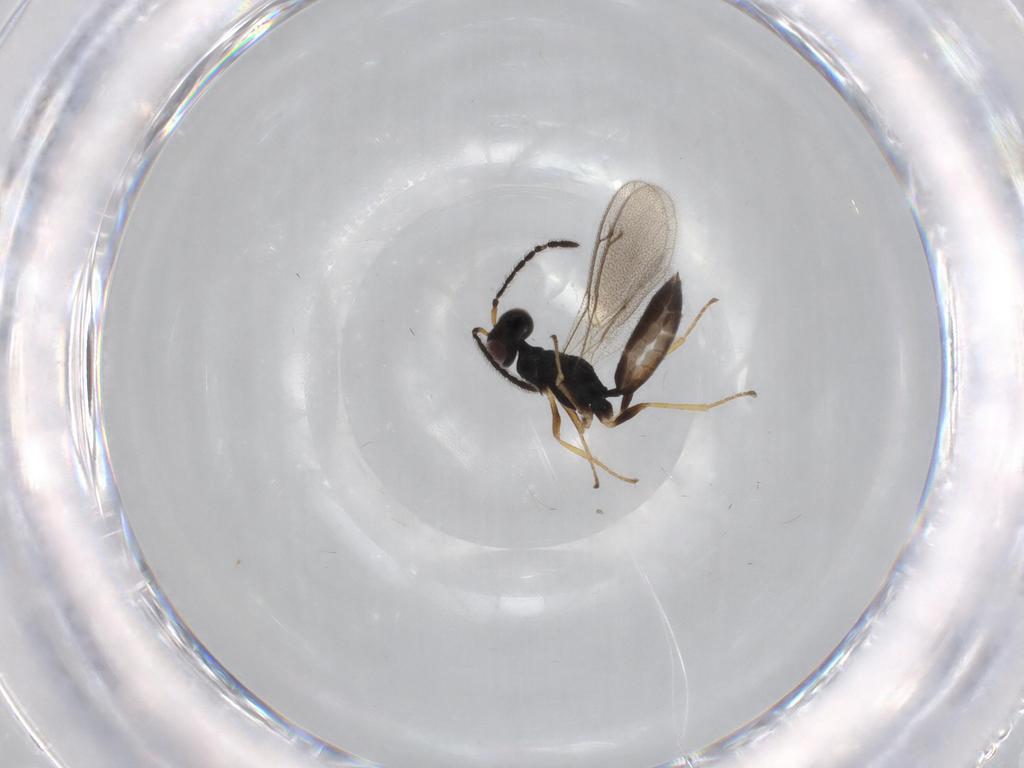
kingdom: Animalia
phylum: Arthropoda
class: Insecta
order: Hymenoptera
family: Pteromalidae
